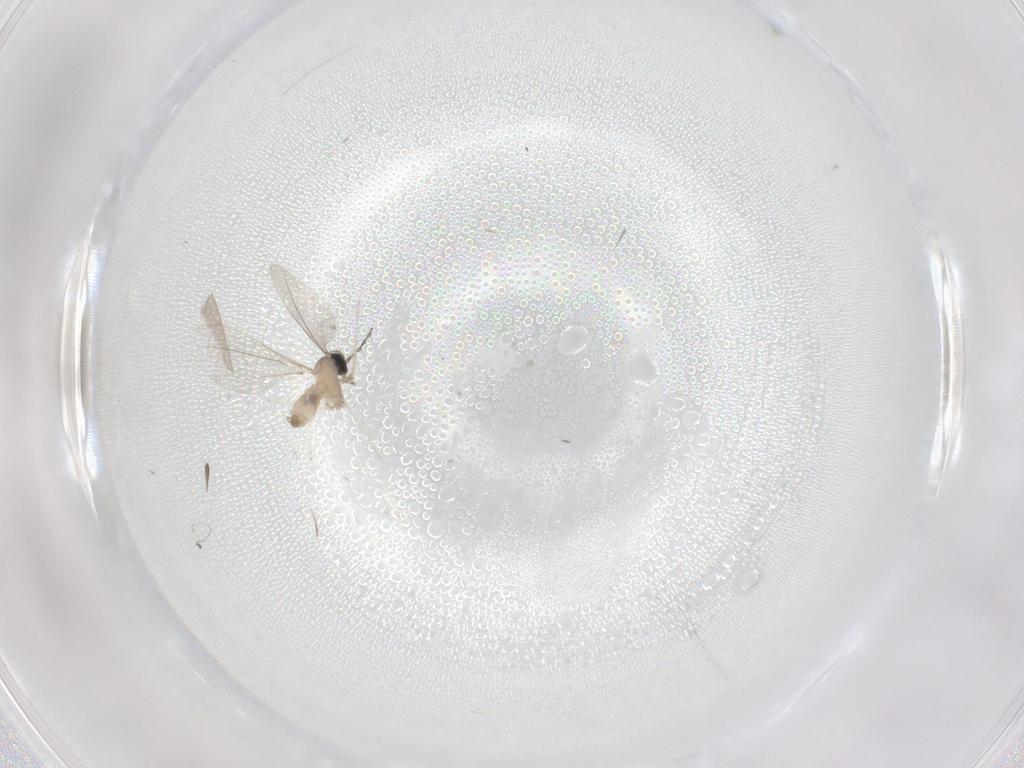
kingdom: Animalia
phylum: Arthropoda
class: Insecta
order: Diptera
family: Cecidomyiidae
